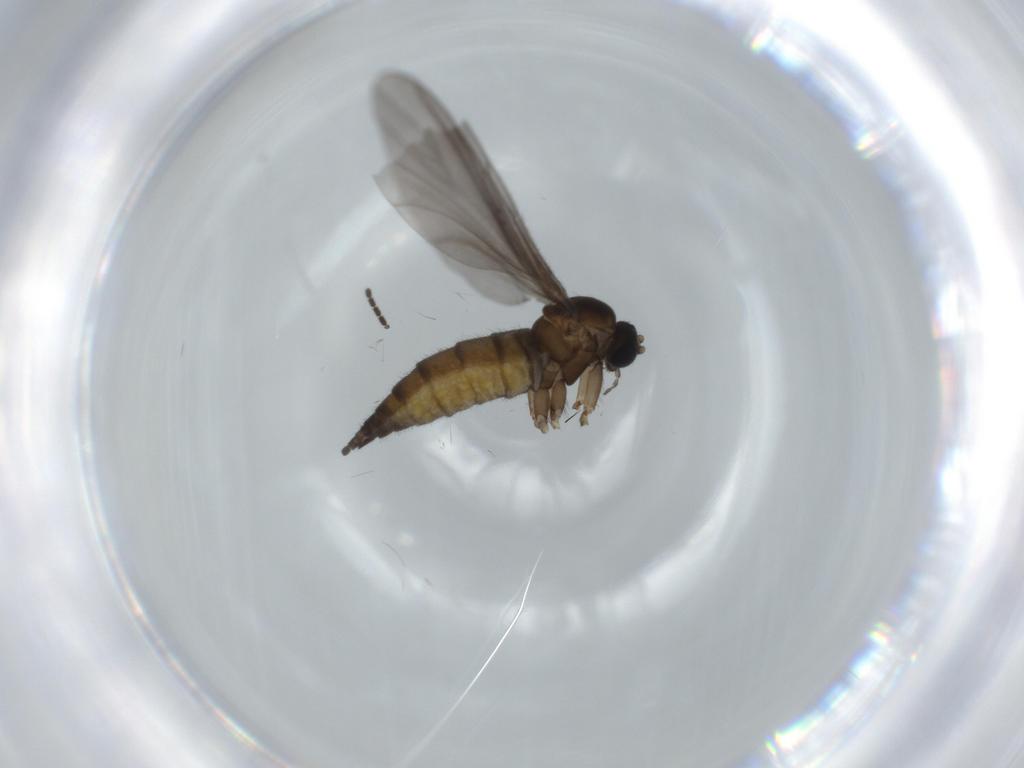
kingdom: Animalia
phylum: Arthropoda
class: Insecta
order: Diptera
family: Sciaridae
